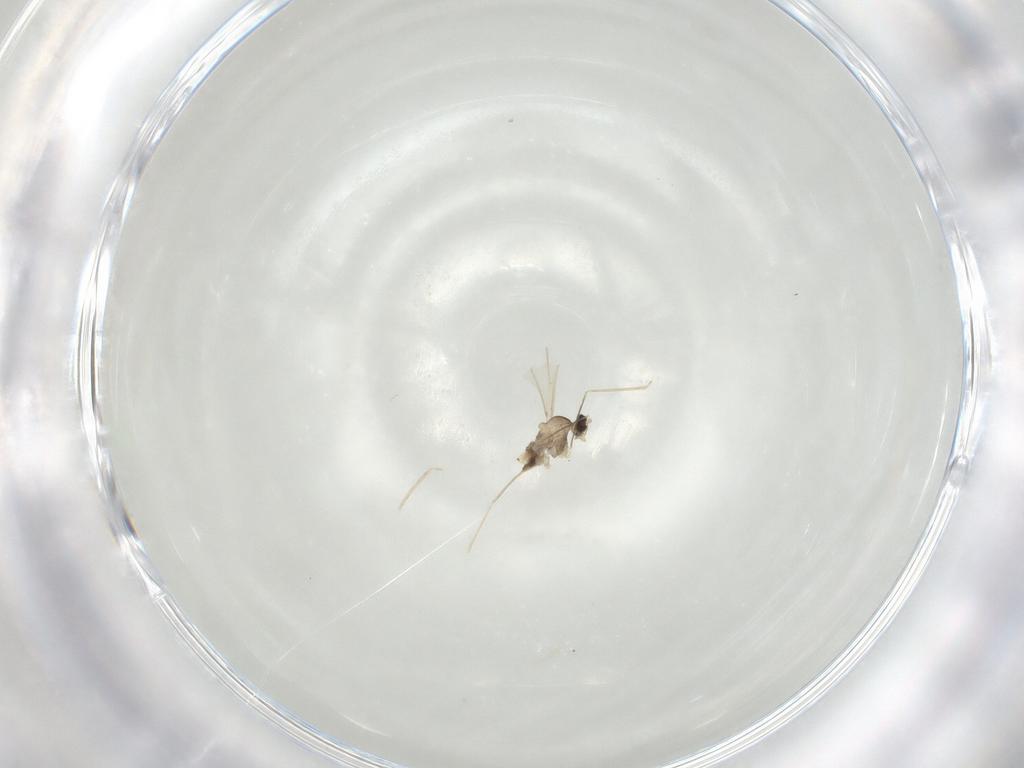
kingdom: Animalia
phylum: Arthropoda
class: Insecta
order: Diptera
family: Cecidomyiidae
